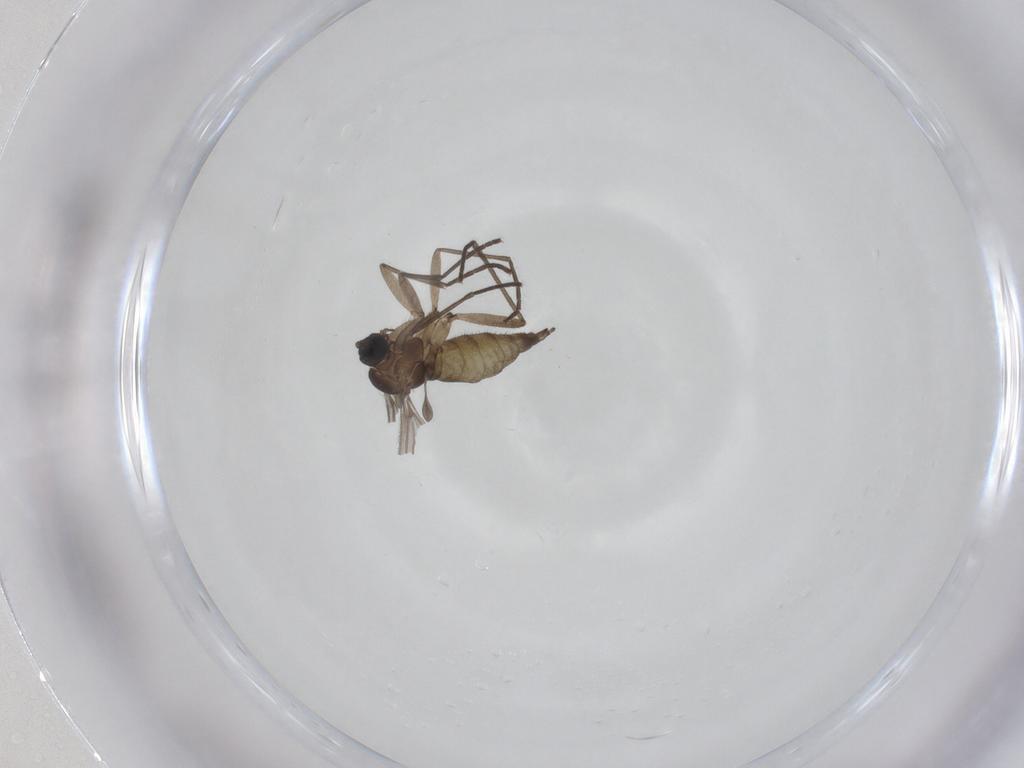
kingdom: Animalia
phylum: Arthropoda
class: Insecta
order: Diptera
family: Sciaridae
